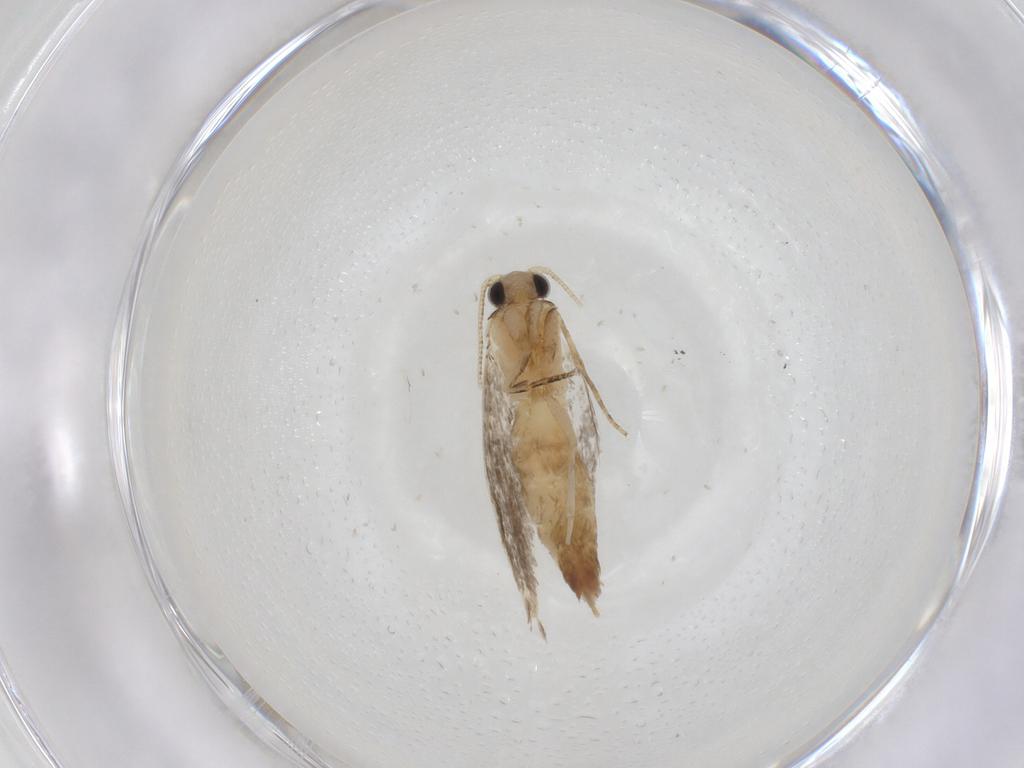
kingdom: Animalia
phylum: Arthropoda
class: Insecta
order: Lepidoptera
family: Tineidae
